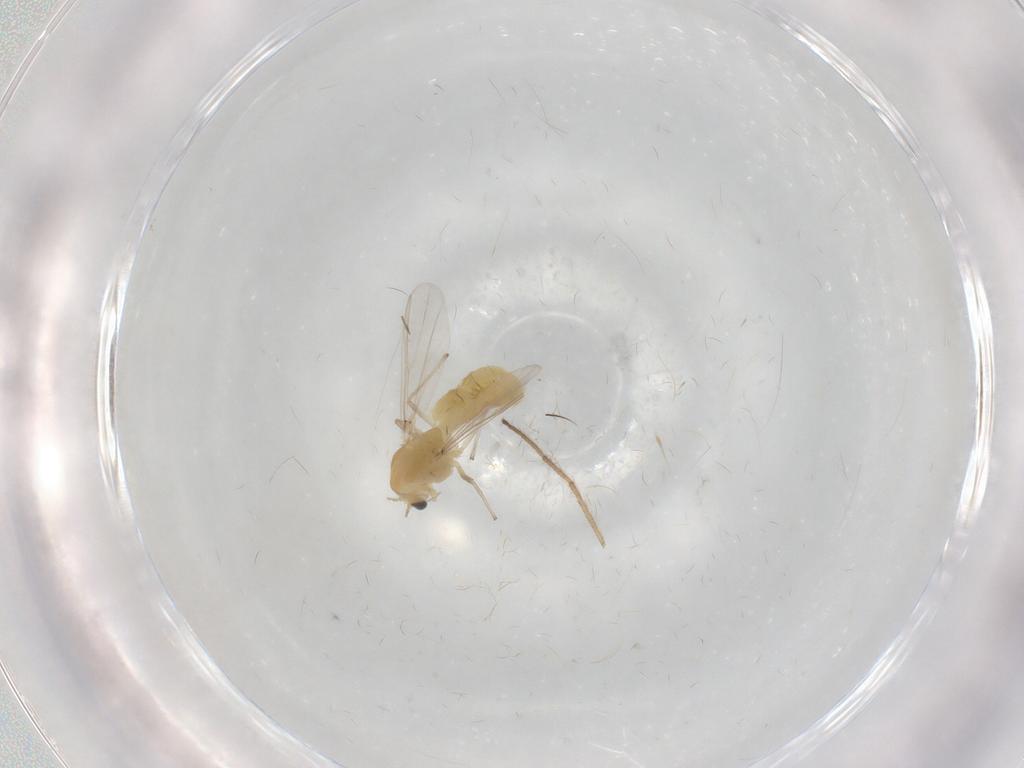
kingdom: Animalia
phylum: Arthropoda
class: Insecta
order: Diptera
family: Chironomidae
